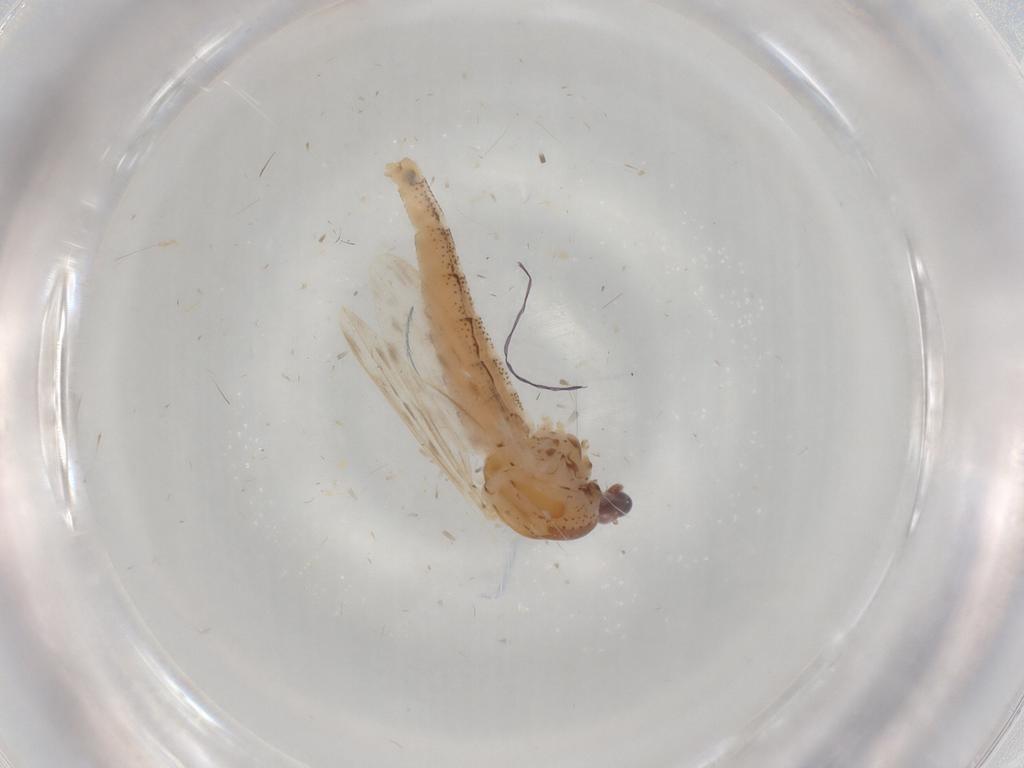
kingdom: Animalia
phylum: Arthropoda
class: Insecta
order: Diptera
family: Chaoboridae
